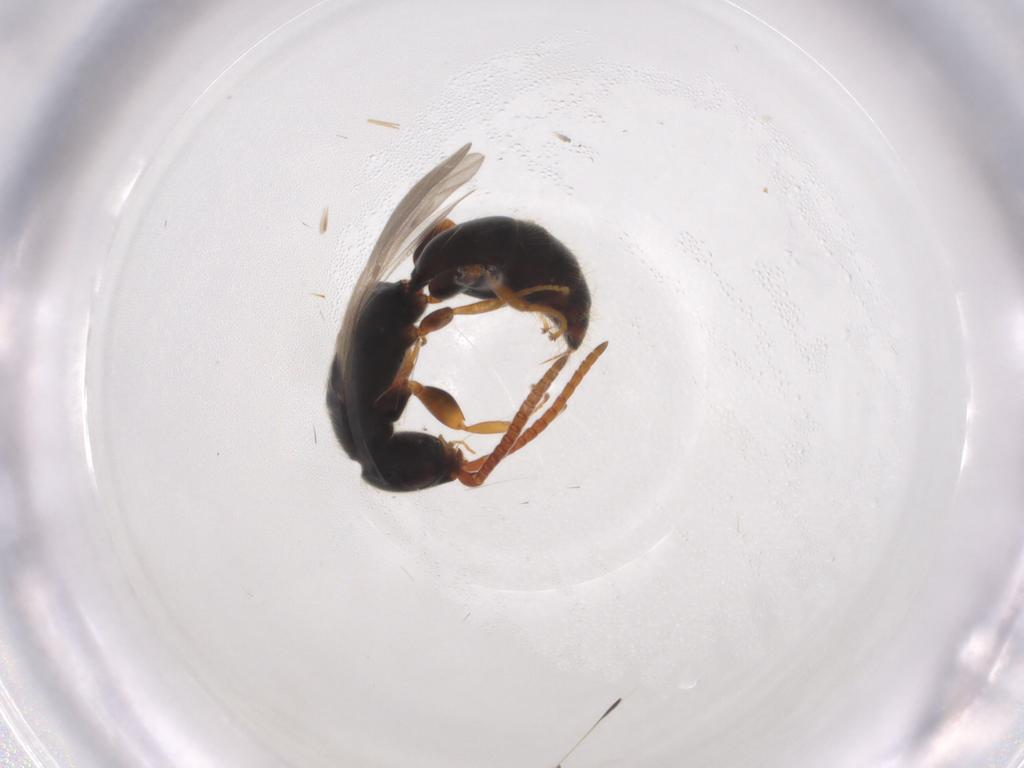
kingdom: Animalia
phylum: Arthropoda
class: Insecta
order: Hymenoptera
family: Bethylidae
